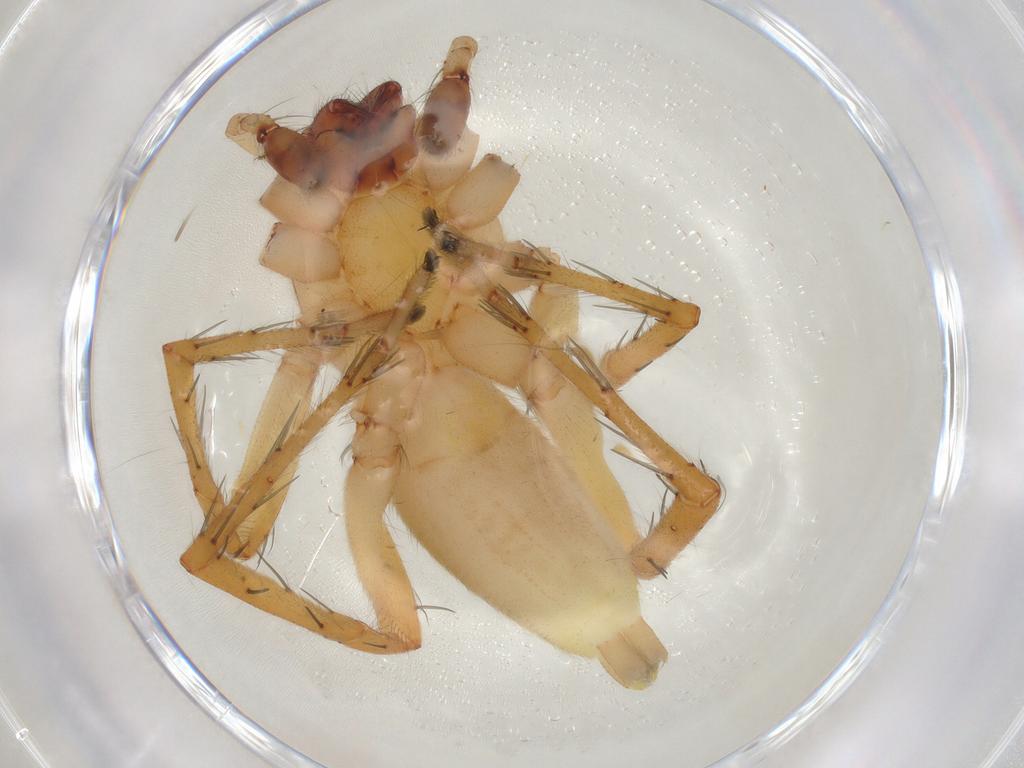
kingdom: Animalia
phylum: Arthropoda
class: Arachnida
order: Araneae
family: Clubionidae
